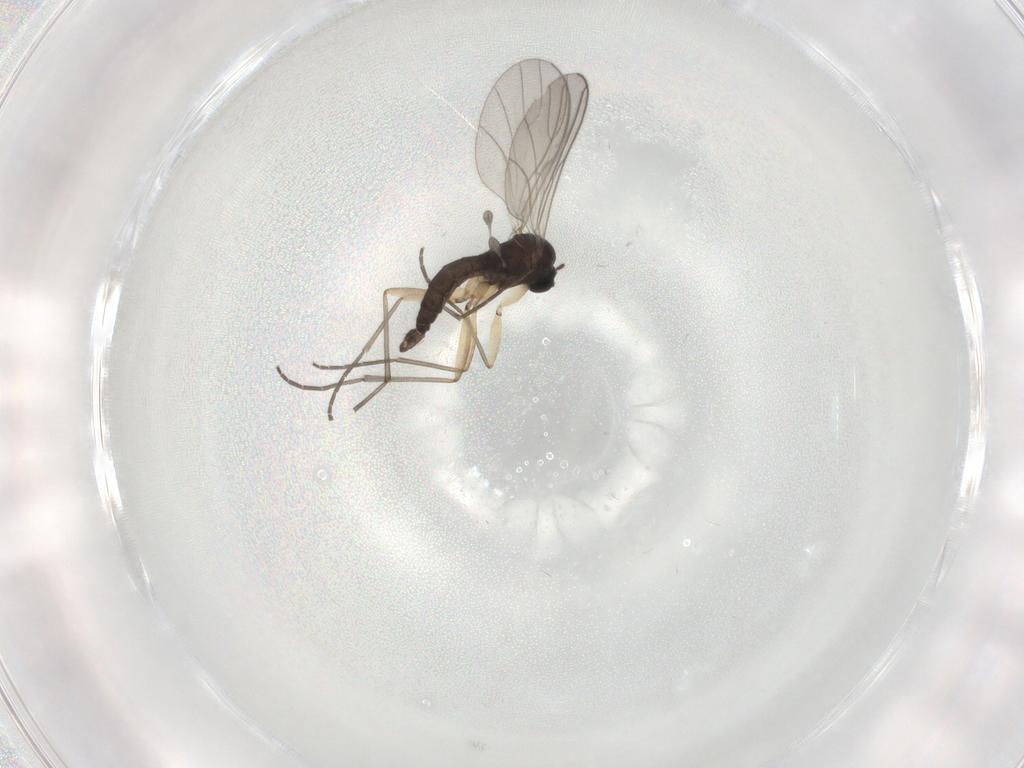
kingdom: Animalia
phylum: Arthropoda
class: Insecta
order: Diptera
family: Sciaridae
